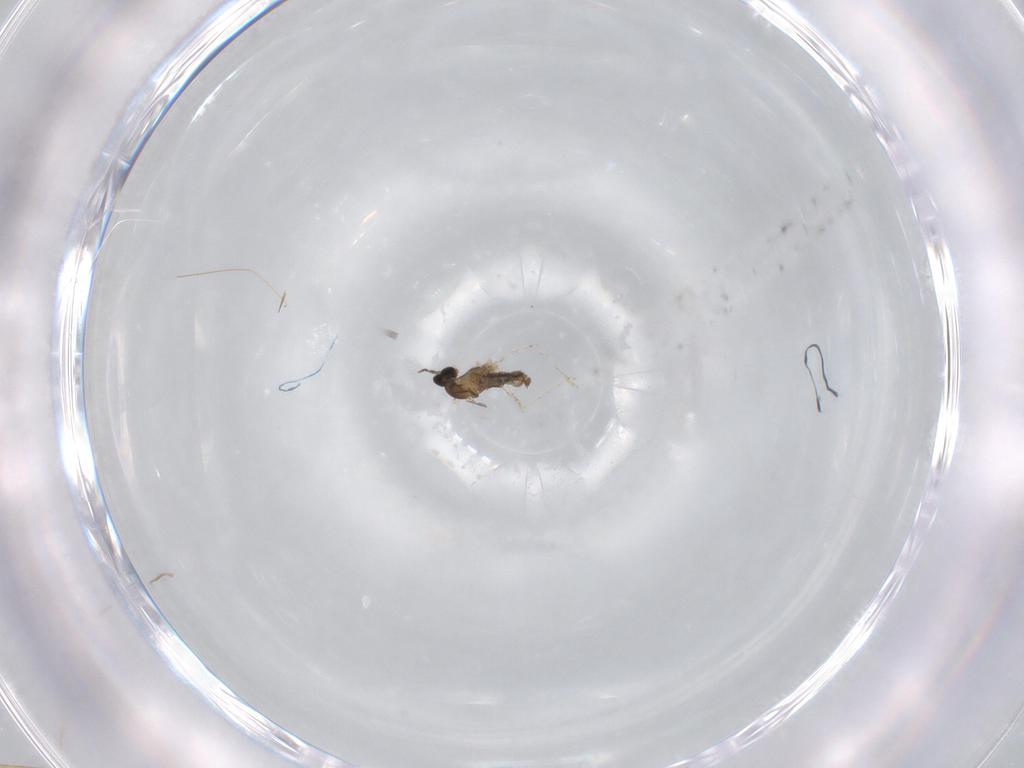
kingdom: Animalia
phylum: Arthropoda
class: Insecta
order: Diptera
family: Cecidomyiidae
